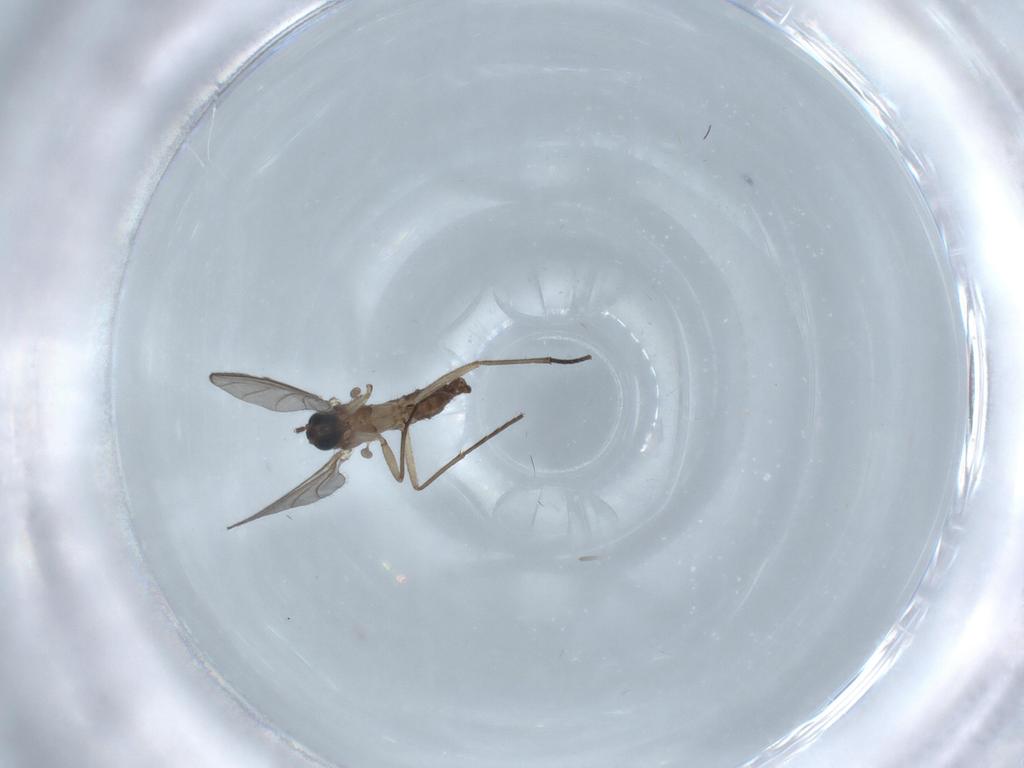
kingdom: Animalia
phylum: Arthropoda
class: Insecta
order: Diptera
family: Sciaridae
